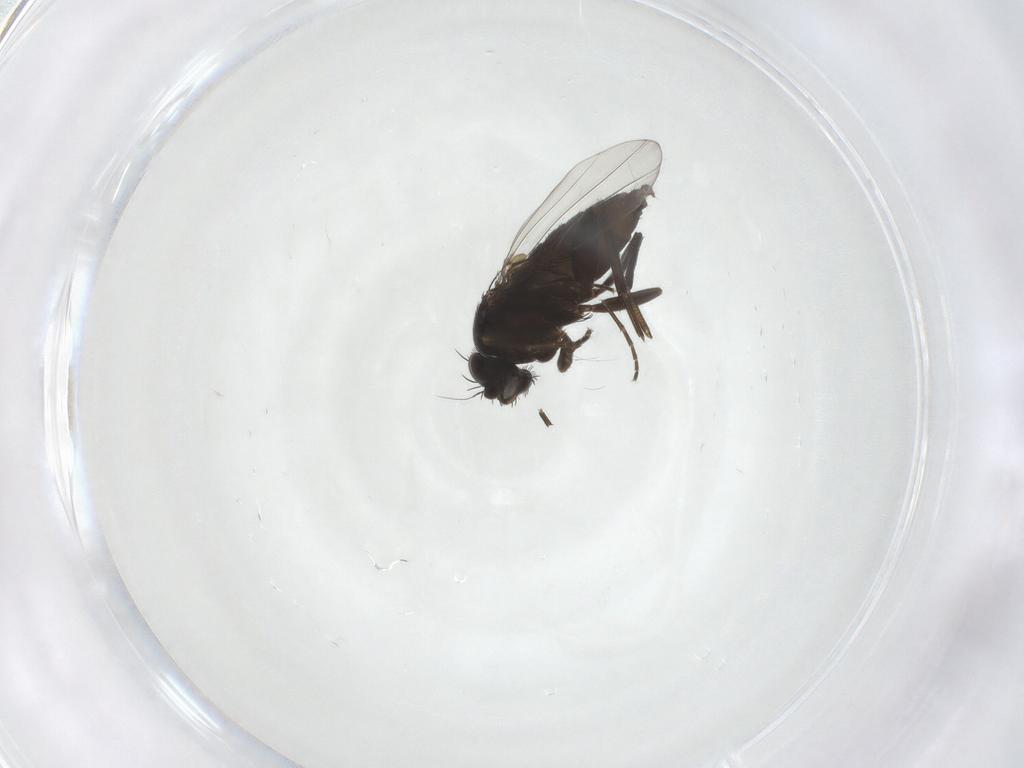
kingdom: Animalia
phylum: Arthropoda
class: Insecta
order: Diptera
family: Phoridae
